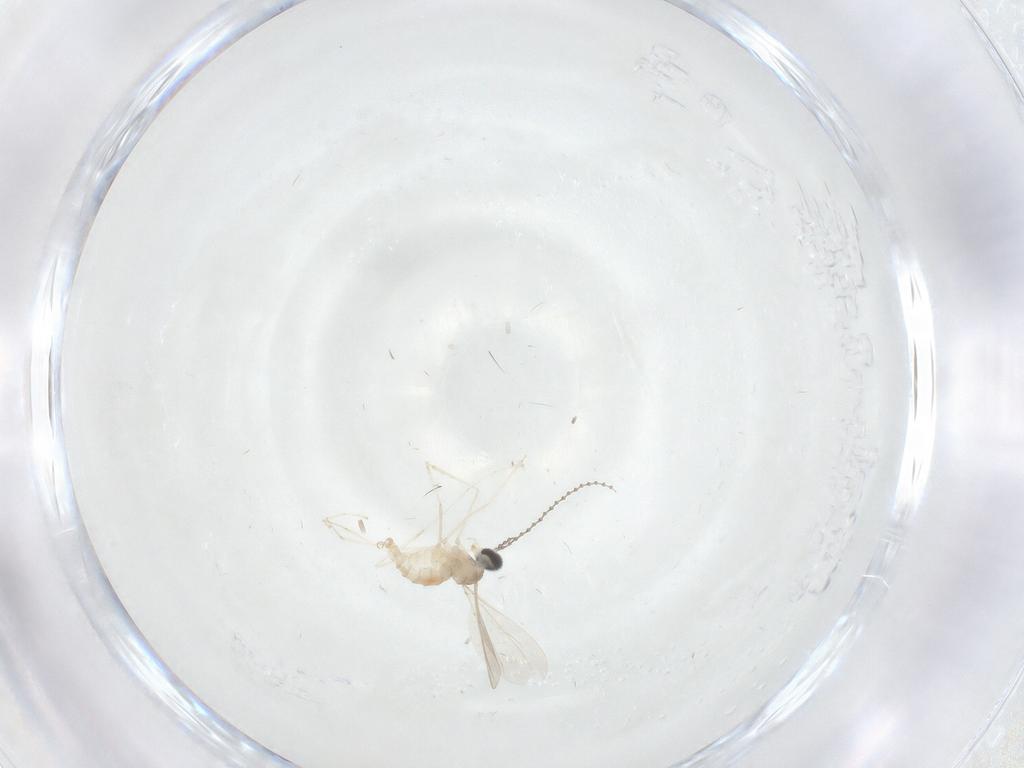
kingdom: Animalia
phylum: Arthropoda
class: Insecta
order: Diptera
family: Cecidomyiidae
